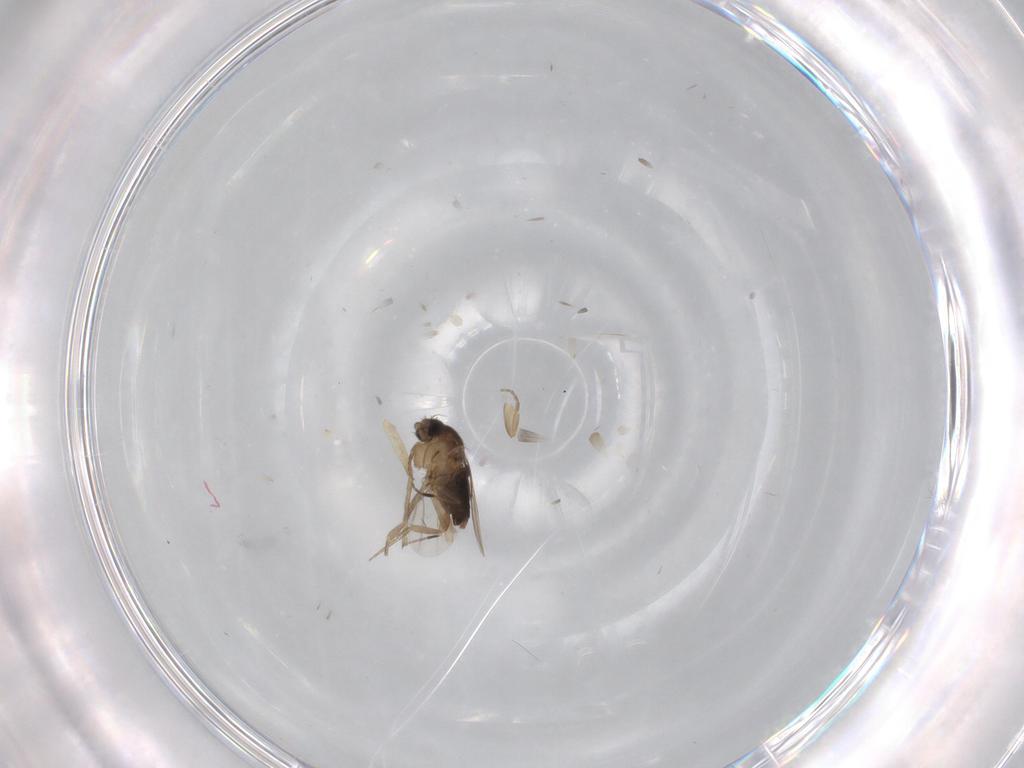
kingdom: Animalia
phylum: Arthropoda
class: Insecta
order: Diptera
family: Chironomidae
